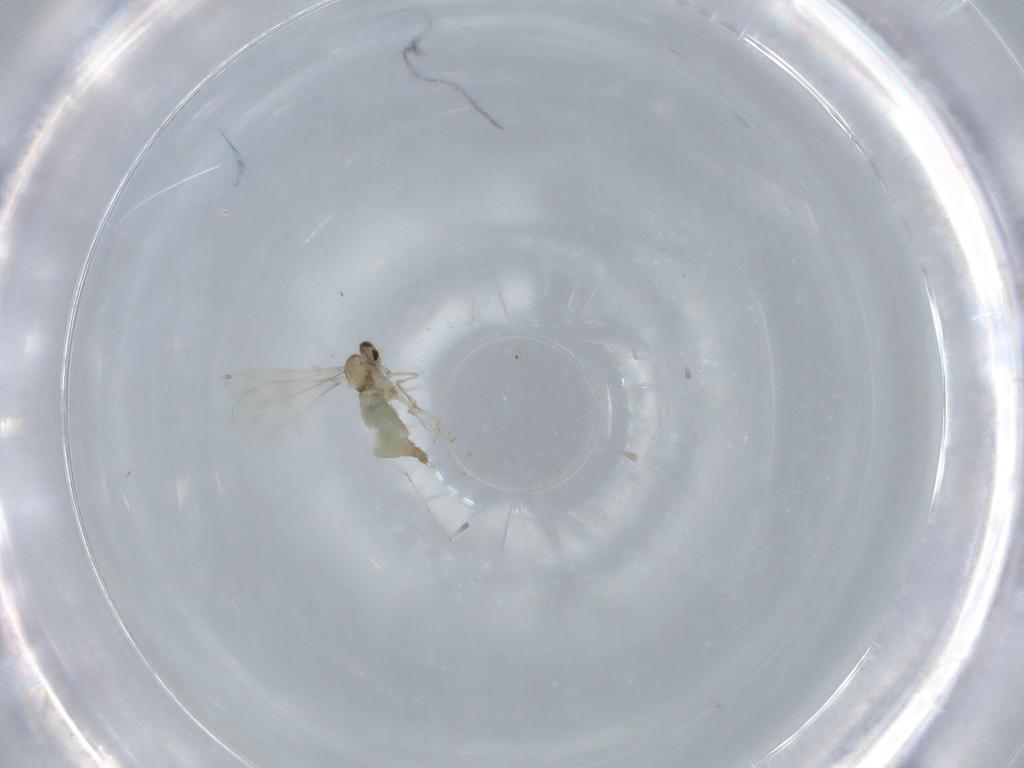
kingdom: Animalia
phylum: Arthropoda
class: Insecta
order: Diptera
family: Cecidomyiidae
